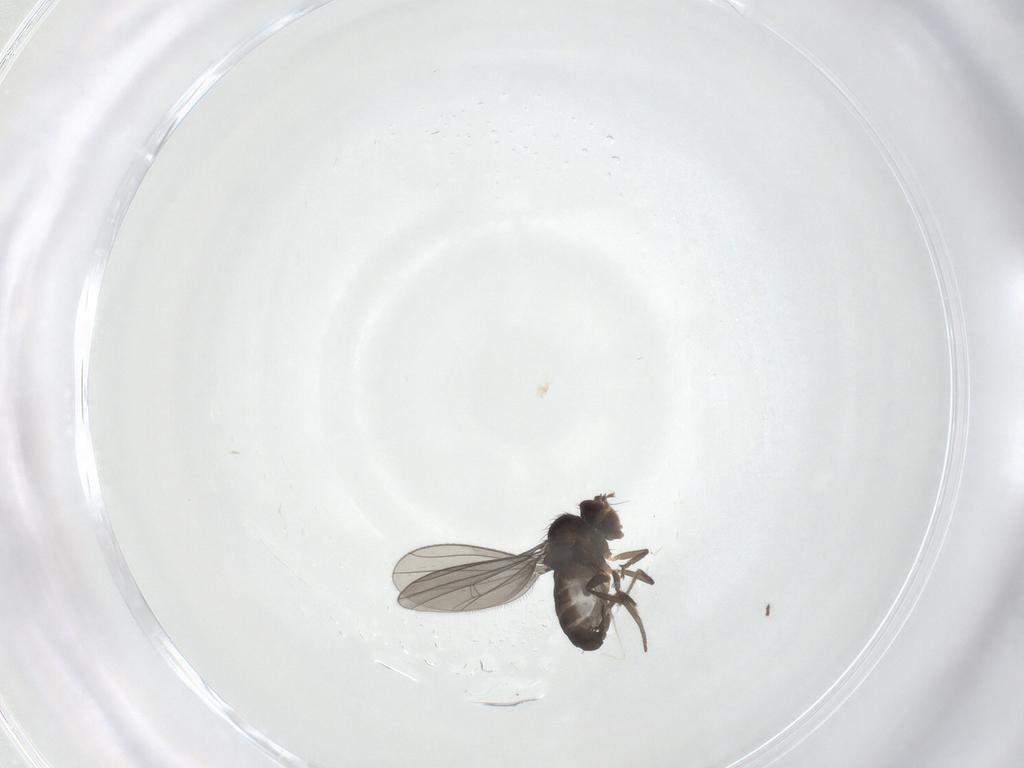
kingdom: Animalia
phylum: Arthropoda
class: Insecta
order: Diptera
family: Dolichopodidae
